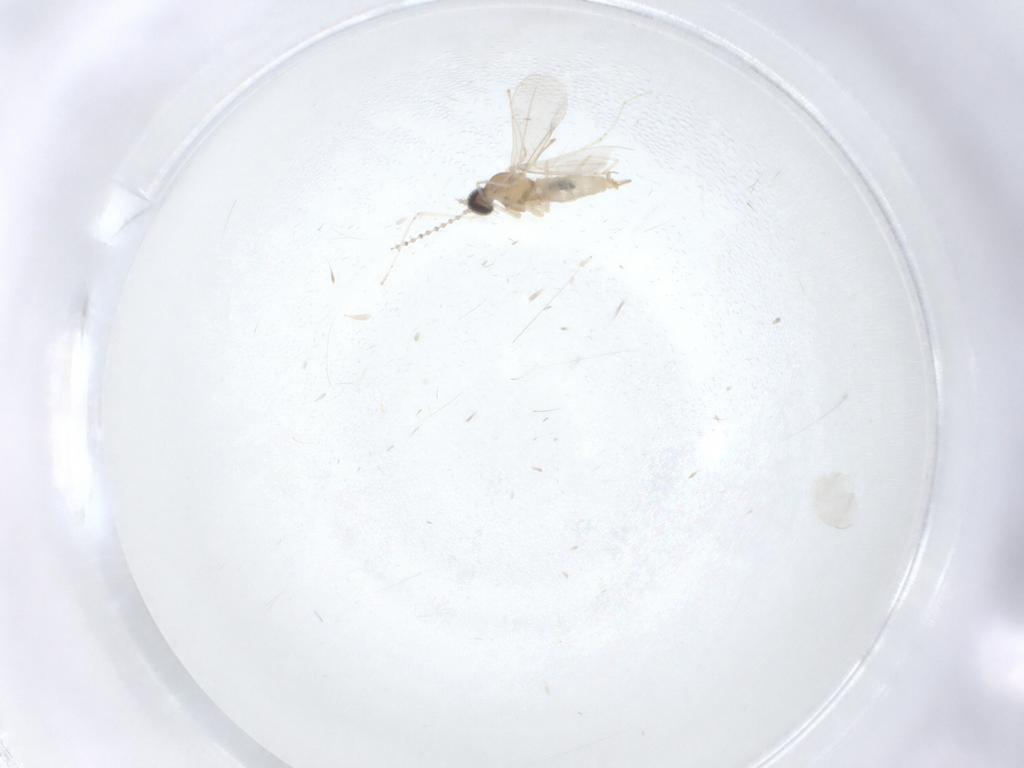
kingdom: Animalia
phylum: Arthropoda
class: Insecta
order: Diptera
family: Cecidomyiidae
